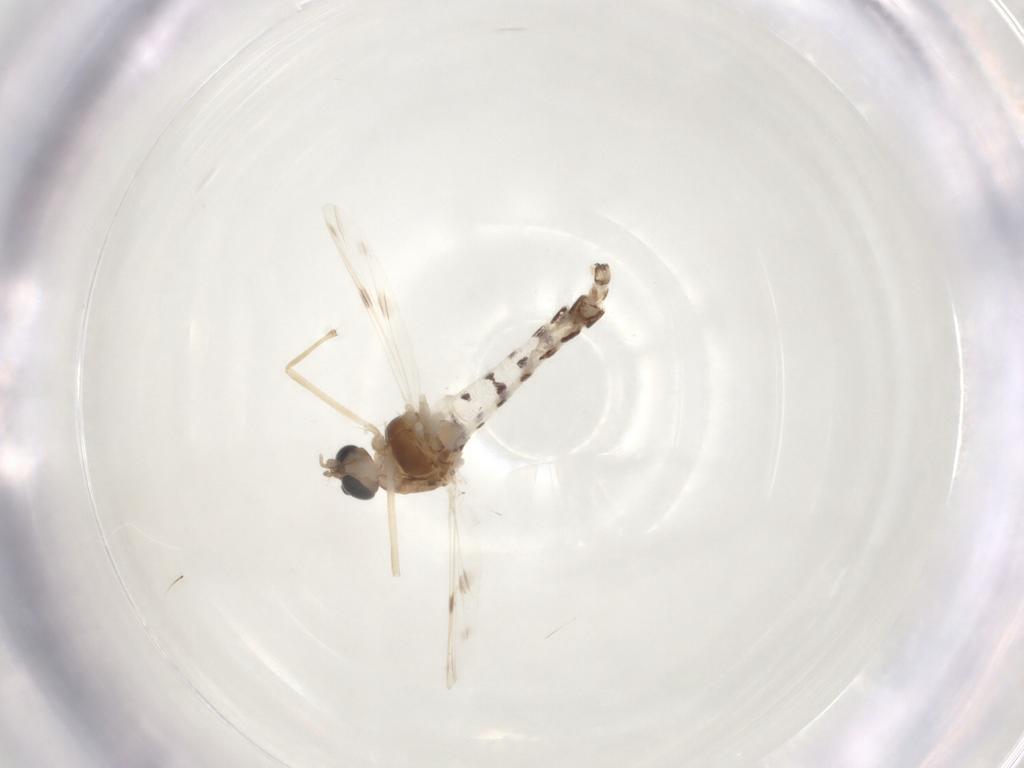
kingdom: Animalia
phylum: Arthropoda
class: Insecta
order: Diptera
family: Chironomidae
